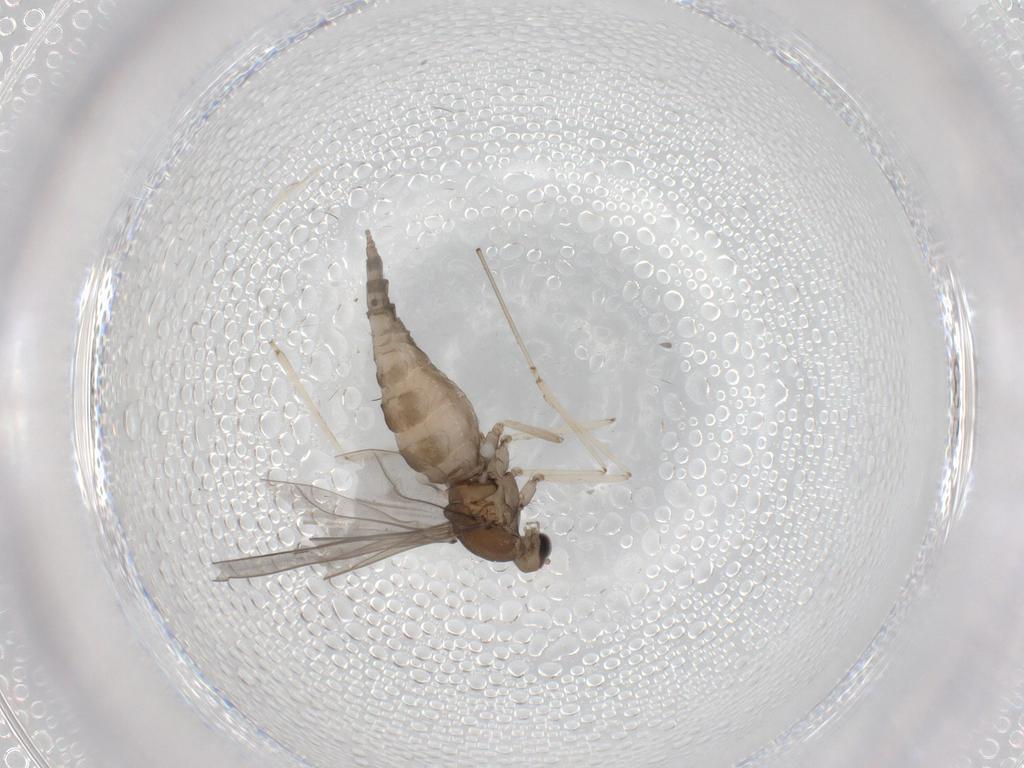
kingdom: Animalia
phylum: Arthropoda
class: Insecta
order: Diptera
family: Cecidomyiidae
